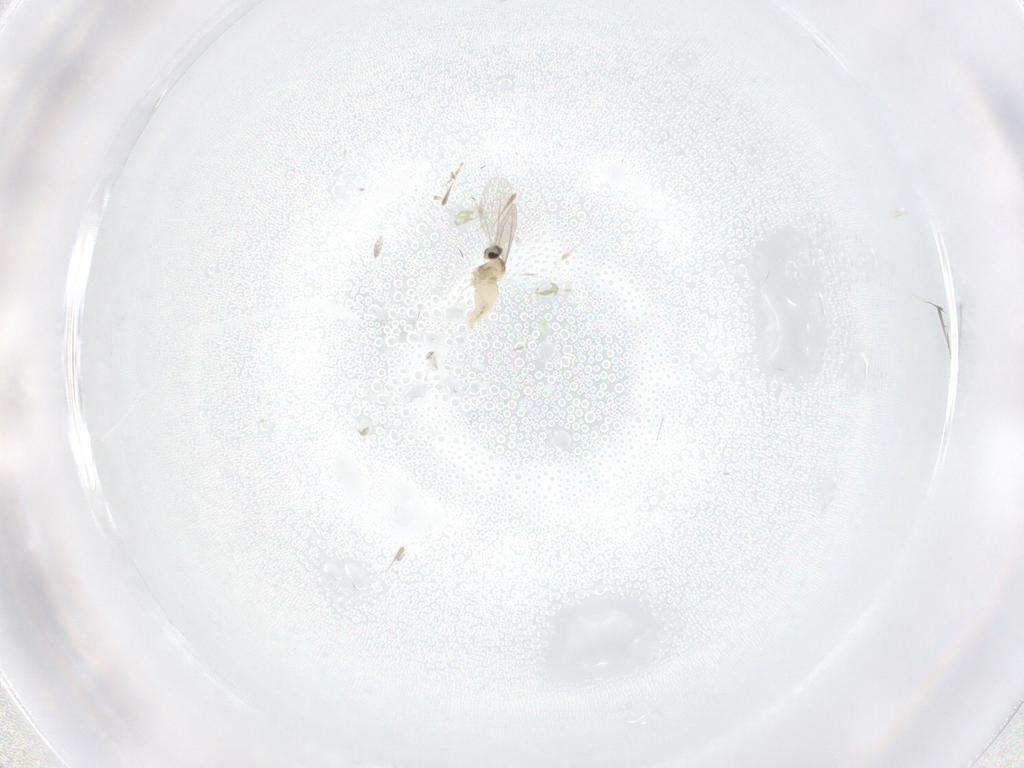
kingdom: Animalia
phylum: Arthropoda
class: Insecta
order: Diptera
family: Cecidomyiidae
